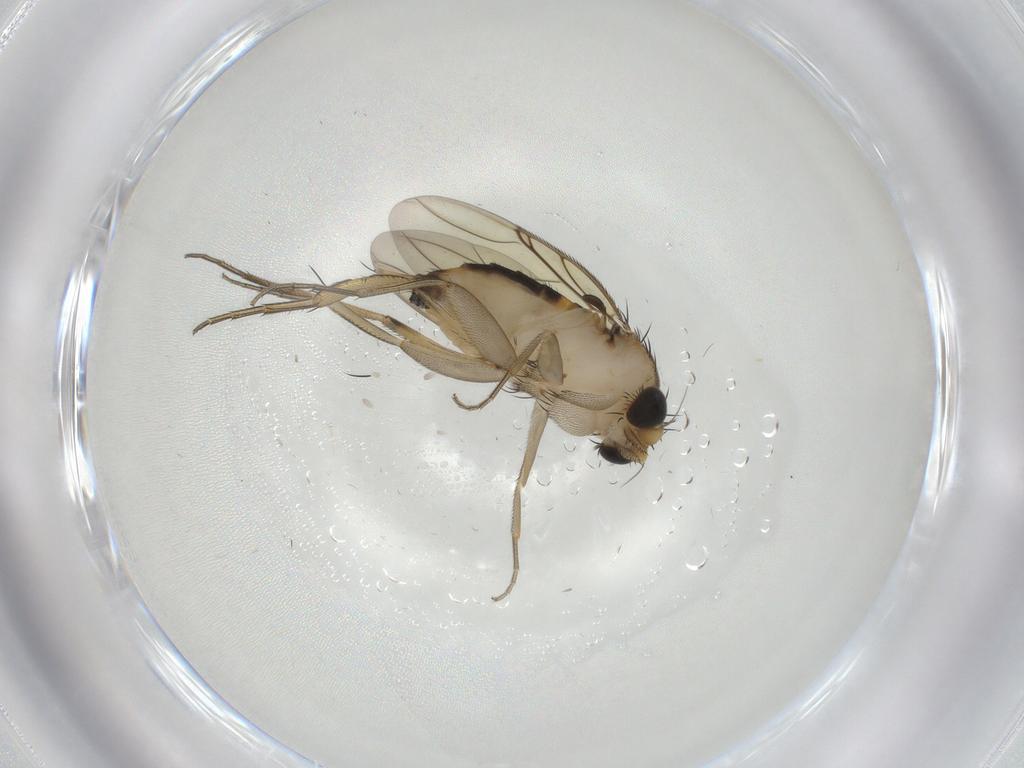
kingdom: Animalia
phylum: Arthropoda
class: Insecta
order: Diptera
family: Phoridae
